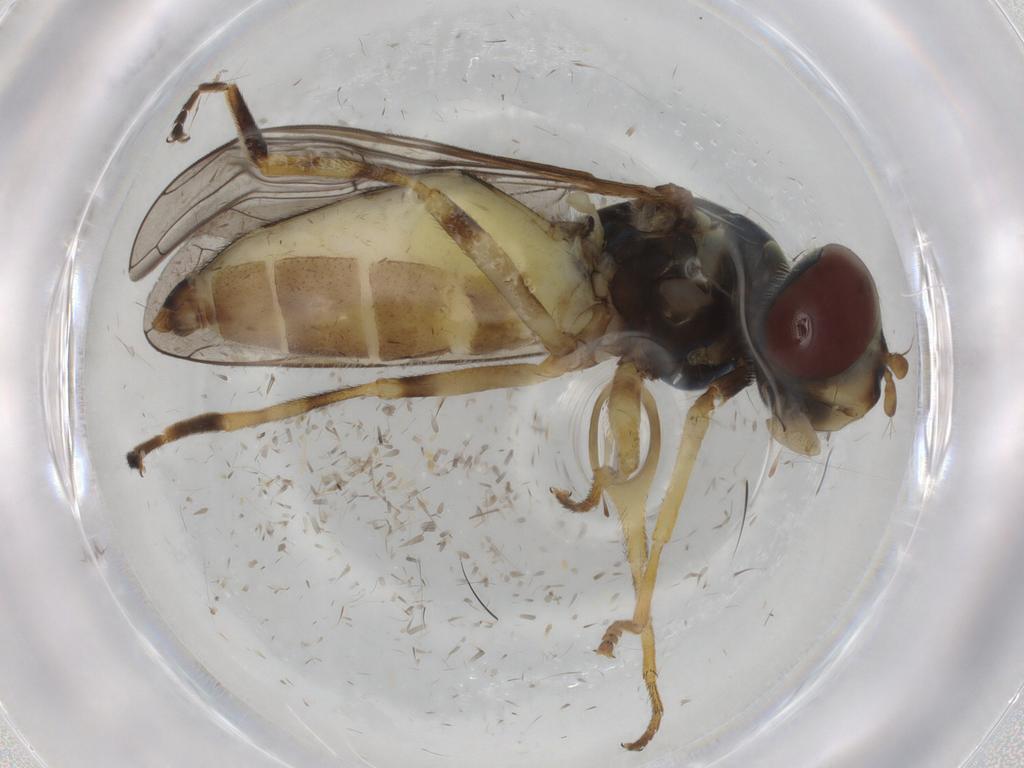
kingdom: Animalia
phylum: Arthropoda
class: Insecta
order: Diptera
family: Syrphidae
